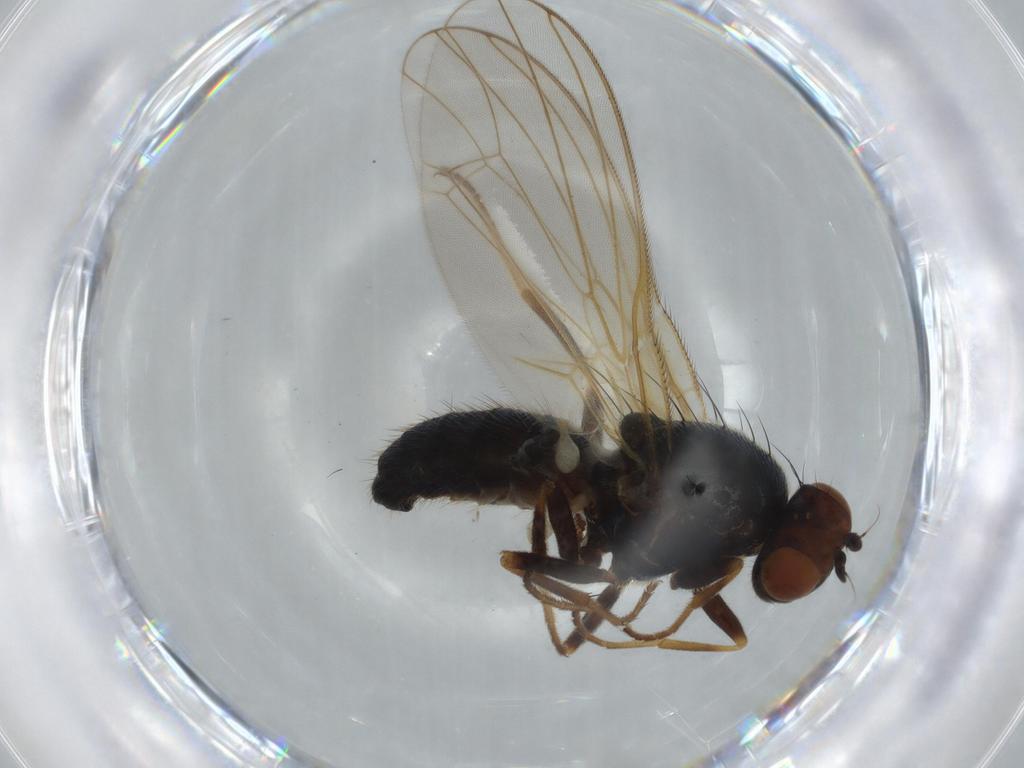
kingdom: Animalia
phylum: Arthropoda
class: Insecta
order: Diptera
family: Psilidae
